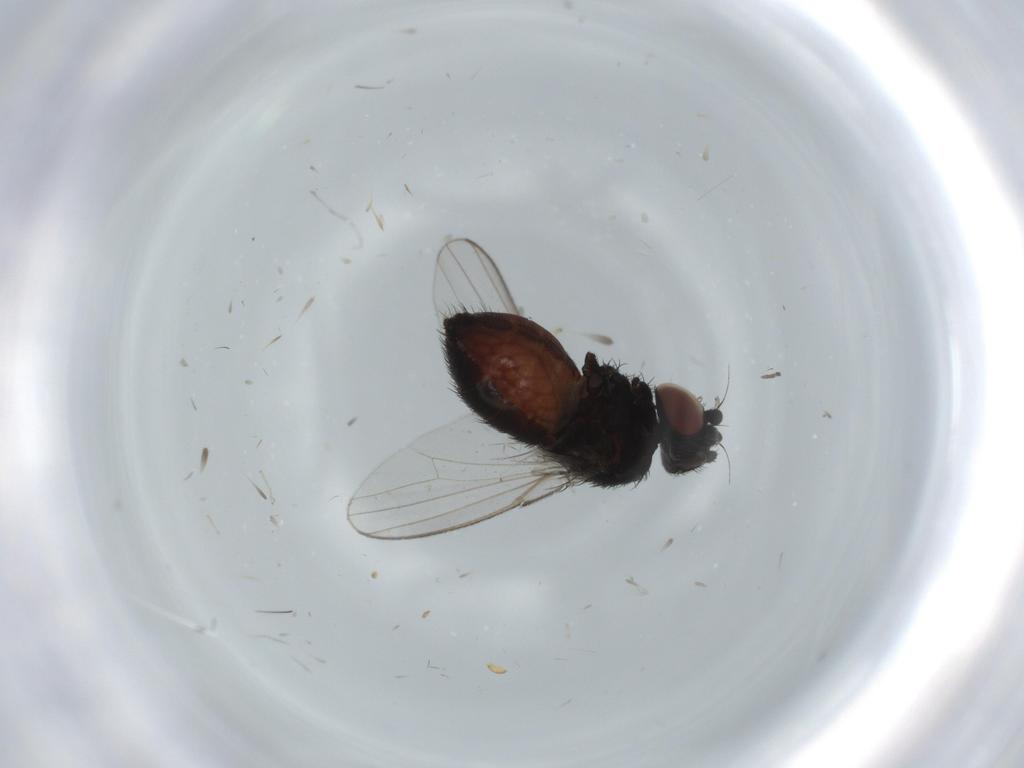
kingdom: Animalia
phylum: Arthropoda
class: Insecta
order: Diptera
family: Milichiidae
